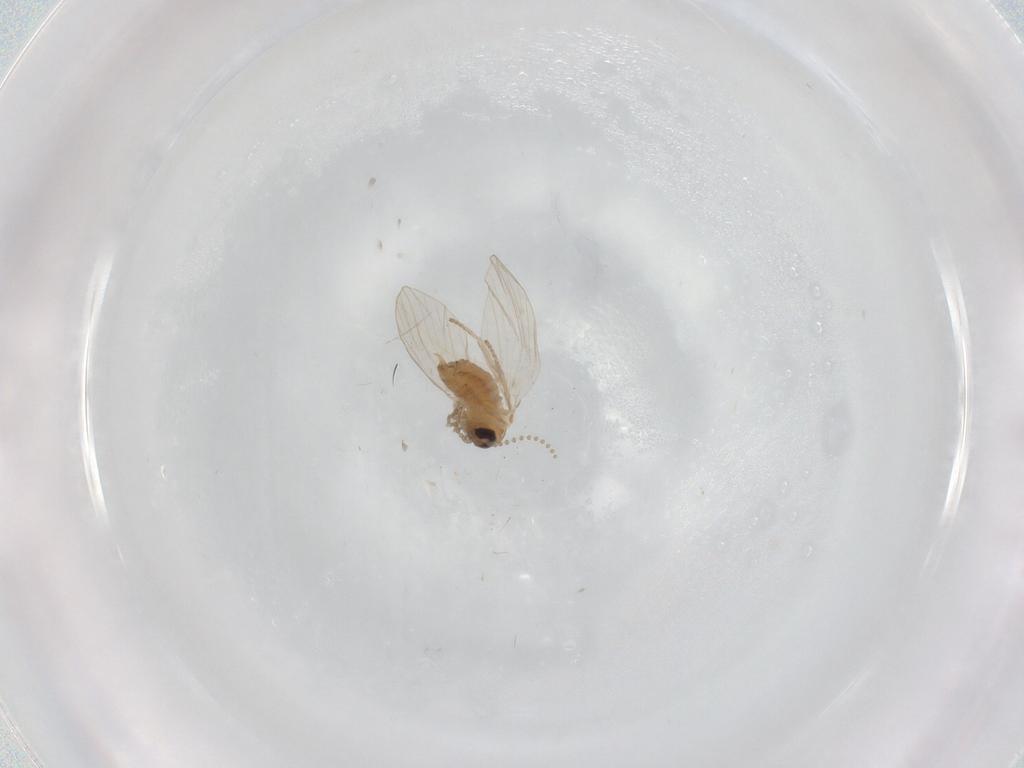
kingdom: Animalia
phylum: Arthropoda
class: Insecta
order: Diptera
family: Psychodidae
